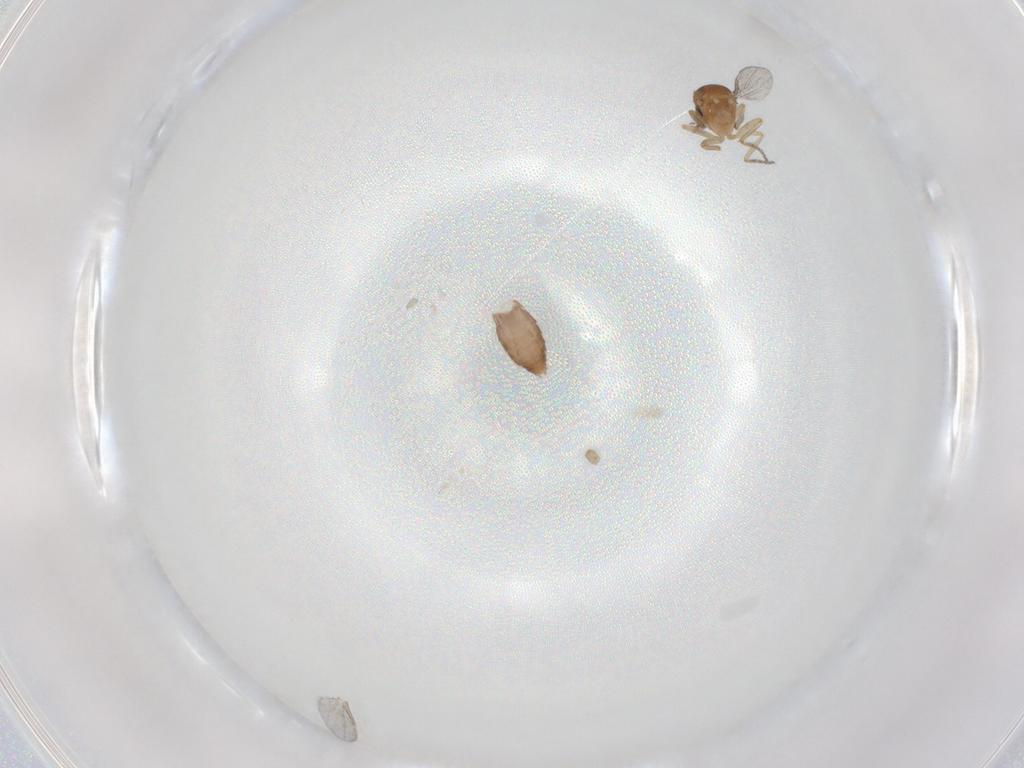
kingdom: Animalia
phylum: Arthropoda
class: Insecta
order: Diptera
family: Ceratopogonidae
